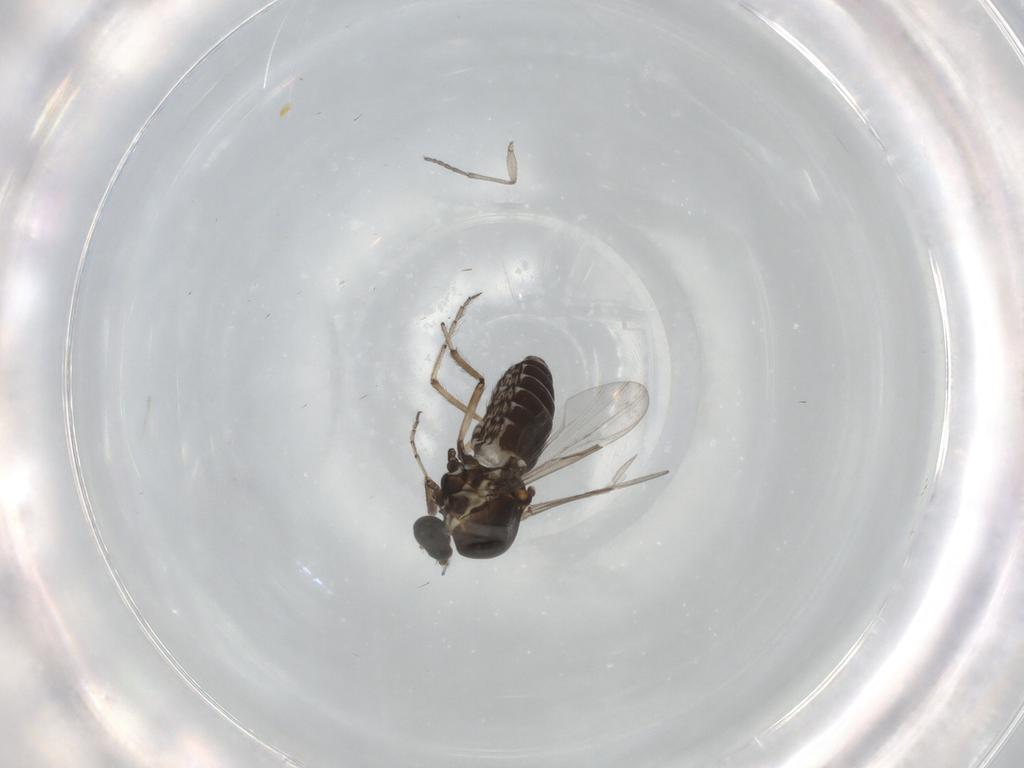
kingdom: Animalia
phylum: Arthropoda
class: Insecta
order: Diptera
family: Ceratopogonidae
